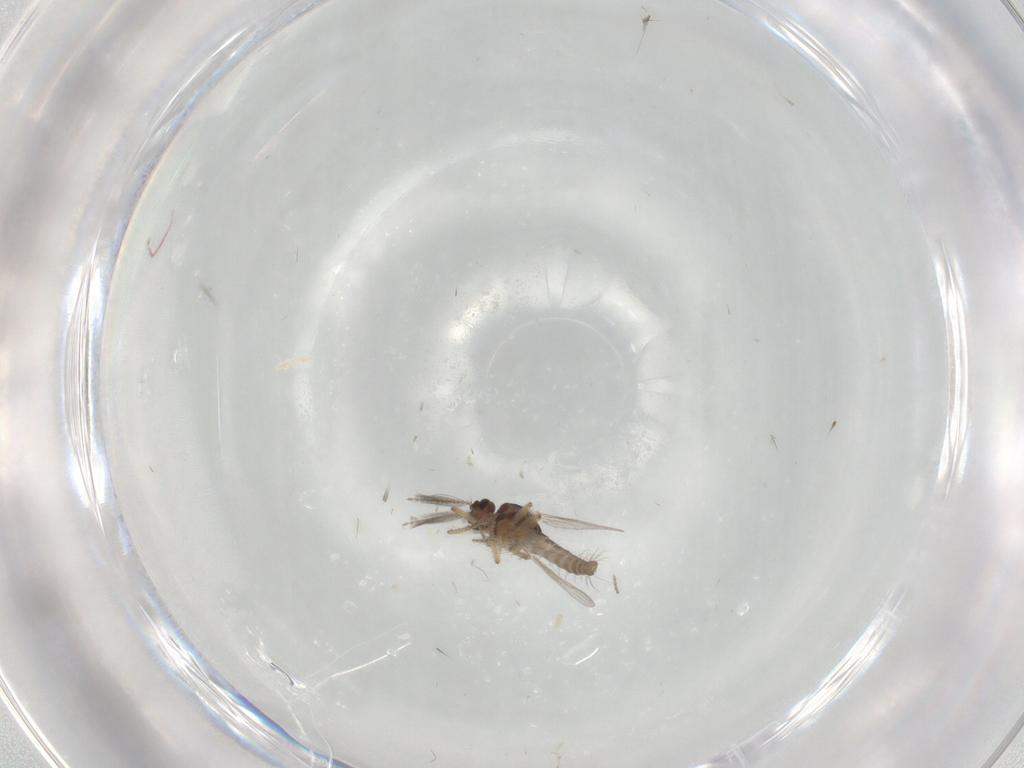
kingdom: Animalia
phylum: Arthropoda
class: Insecta
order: Diptera
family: Ceratopogonidae
